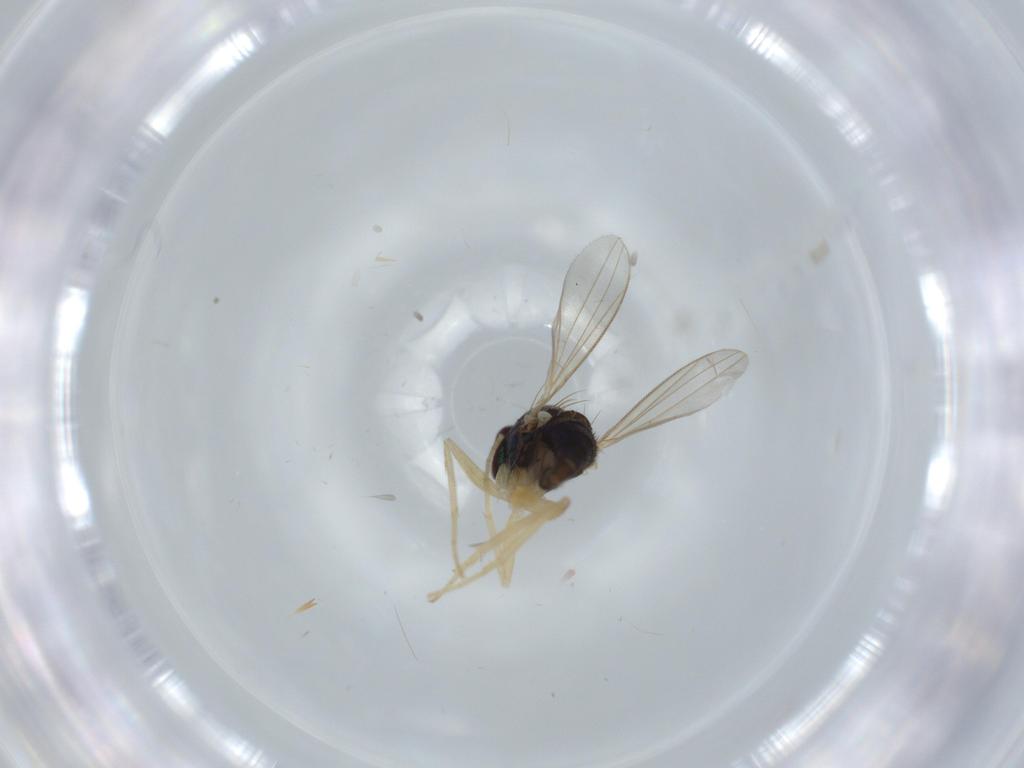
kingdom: Animalia
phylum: Arthropoda
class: Insecta
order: Diptera
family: Dolichopodidae
